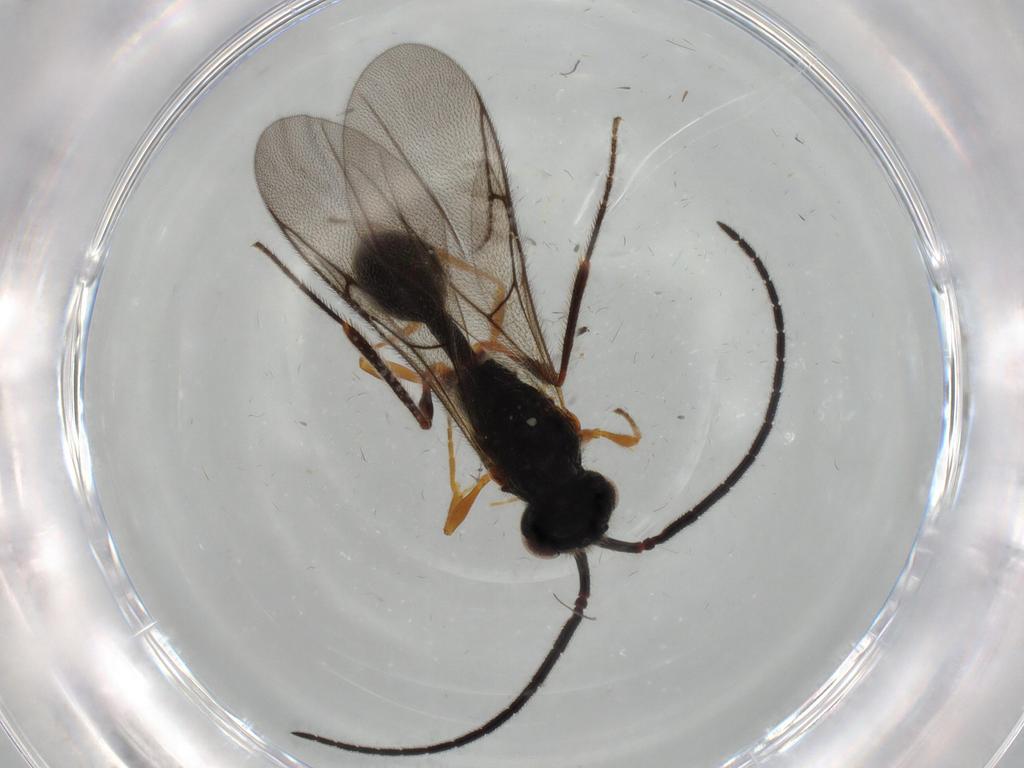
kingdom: Animalia
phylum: Arthropoda
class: Insecta
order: Hymenoptera
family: Diapriidae
